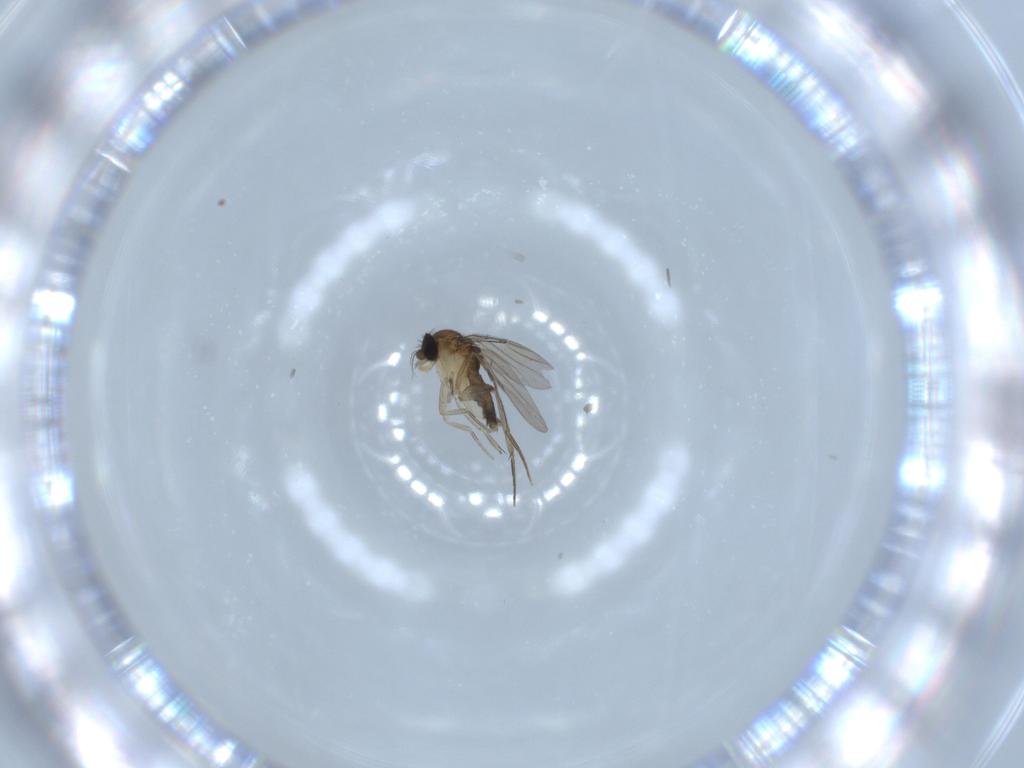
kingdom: Animalia
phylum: Arthropoda
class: Insecta
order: Diptera
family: Phoridae
